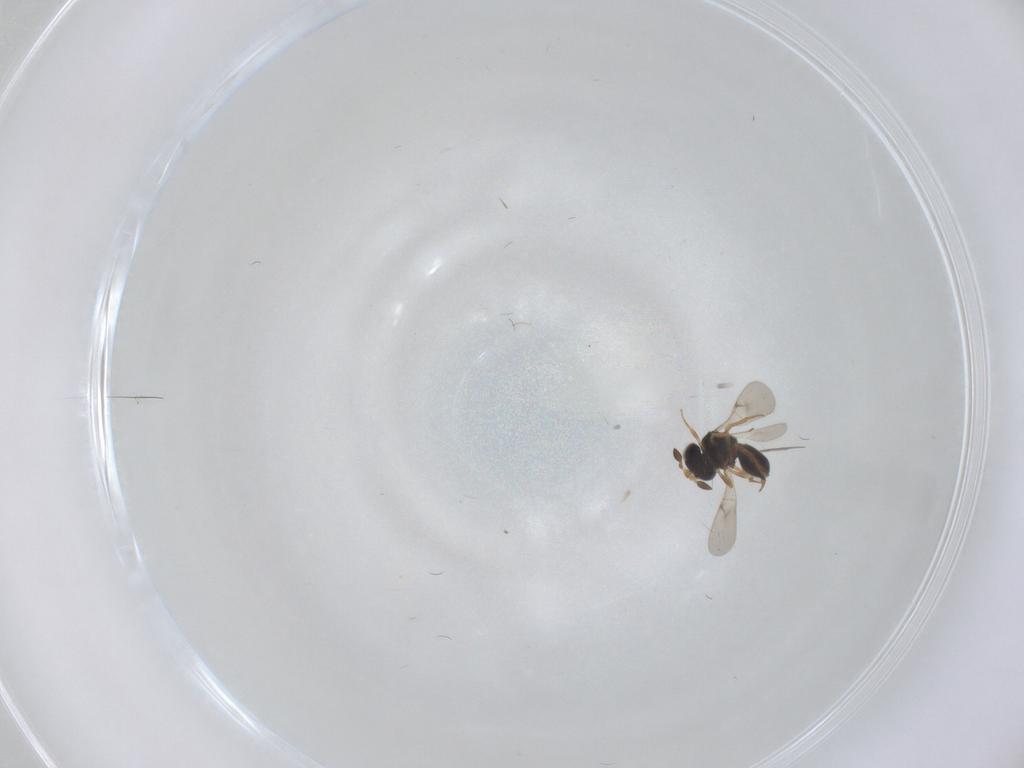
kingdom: Animalia
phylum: Arthropoda
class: Insecta
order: Hymenoptera
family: Scelionidae
